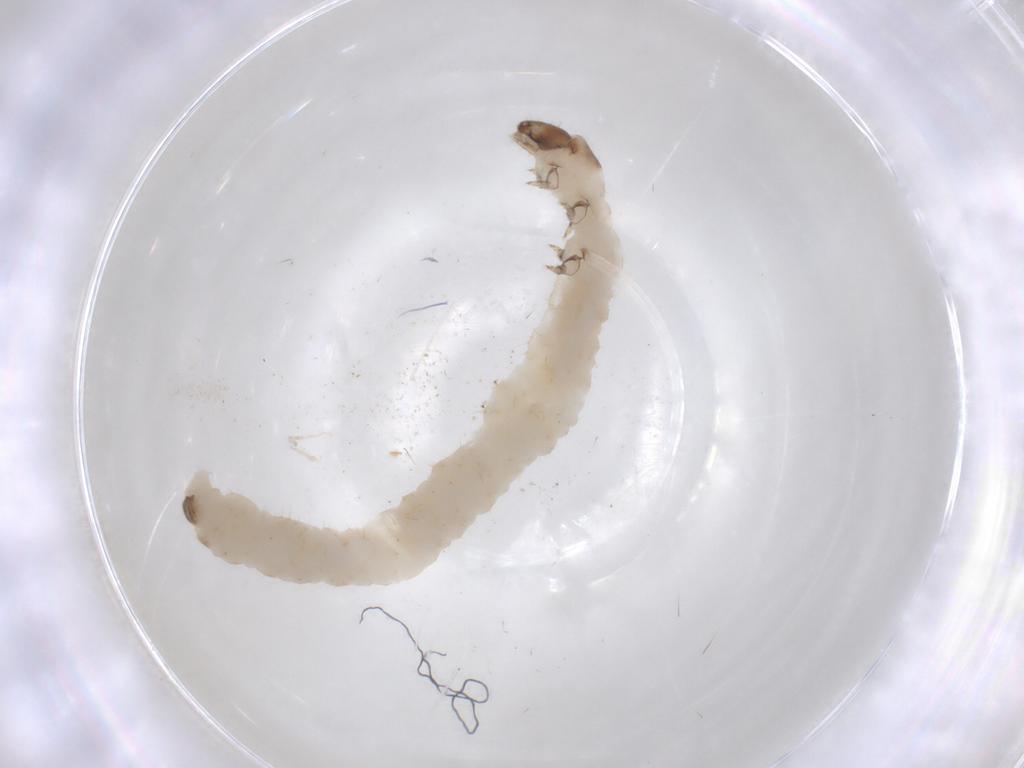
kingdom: Animalia
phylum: Arthropoda
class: Insecta
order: Coleoptera
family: Chrysomelidae
